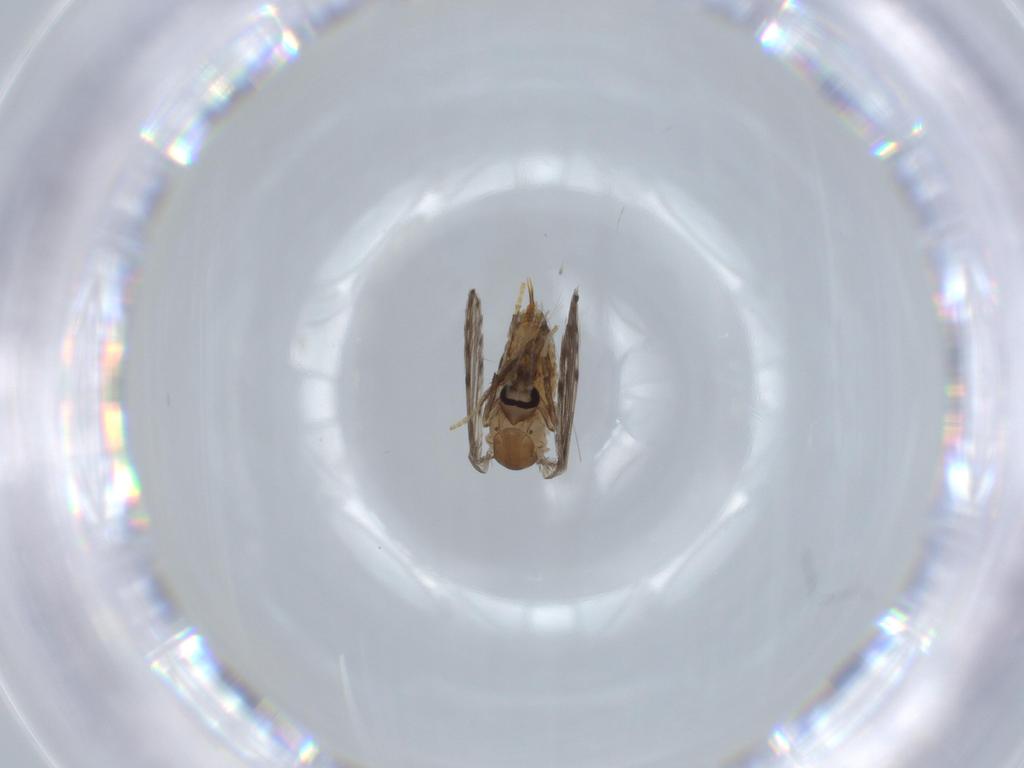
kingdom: Animalia
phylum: Arthropoda
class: Insecta
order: Diptera
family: Psychodidae
